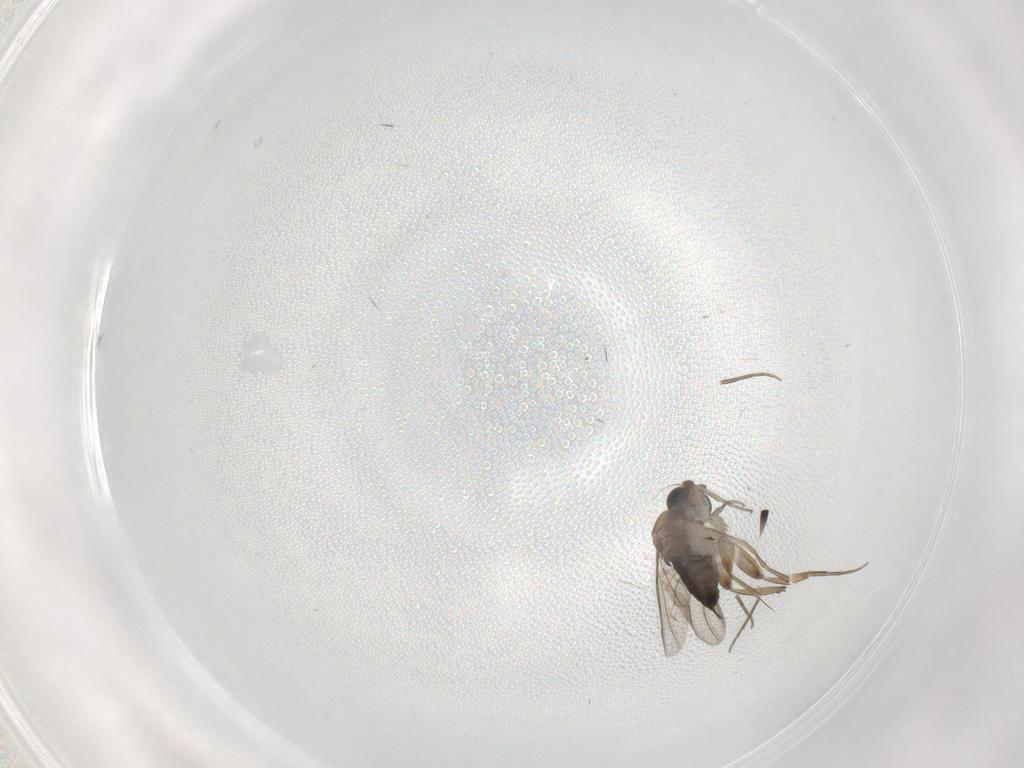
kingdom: Animalia
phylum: Arthropoda
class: Insecta
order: Diptera
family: Phoridae
